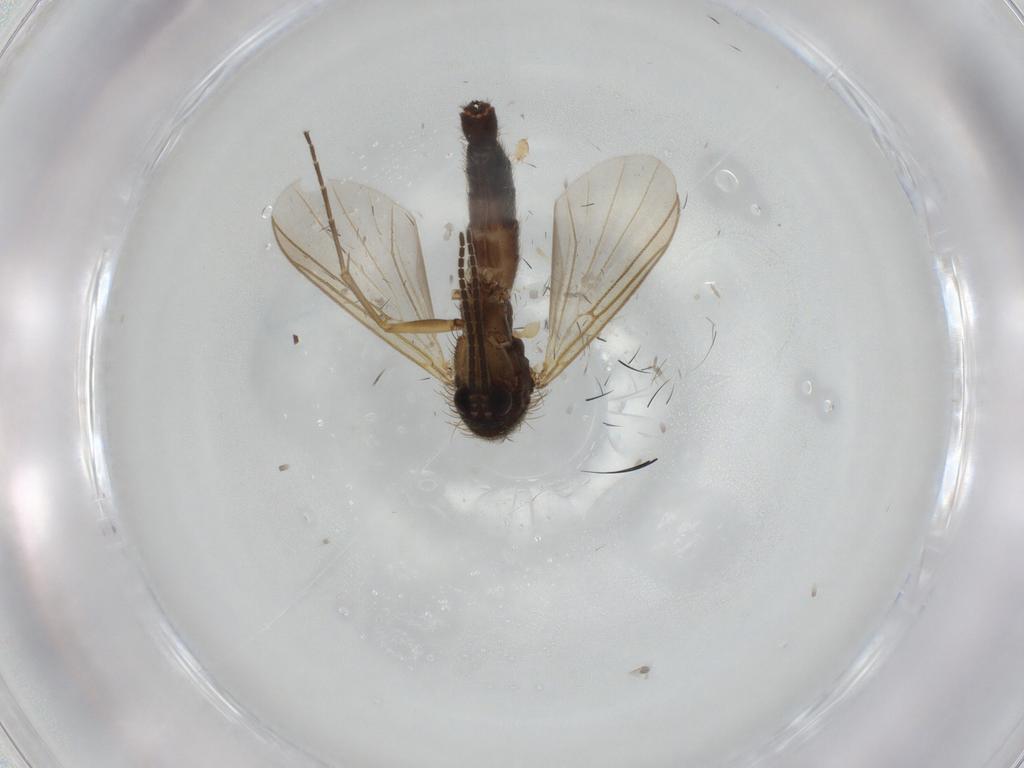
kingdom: Animalia
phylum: Arthropoda
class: Insecta
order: Diptera
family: Mycetophilidae
